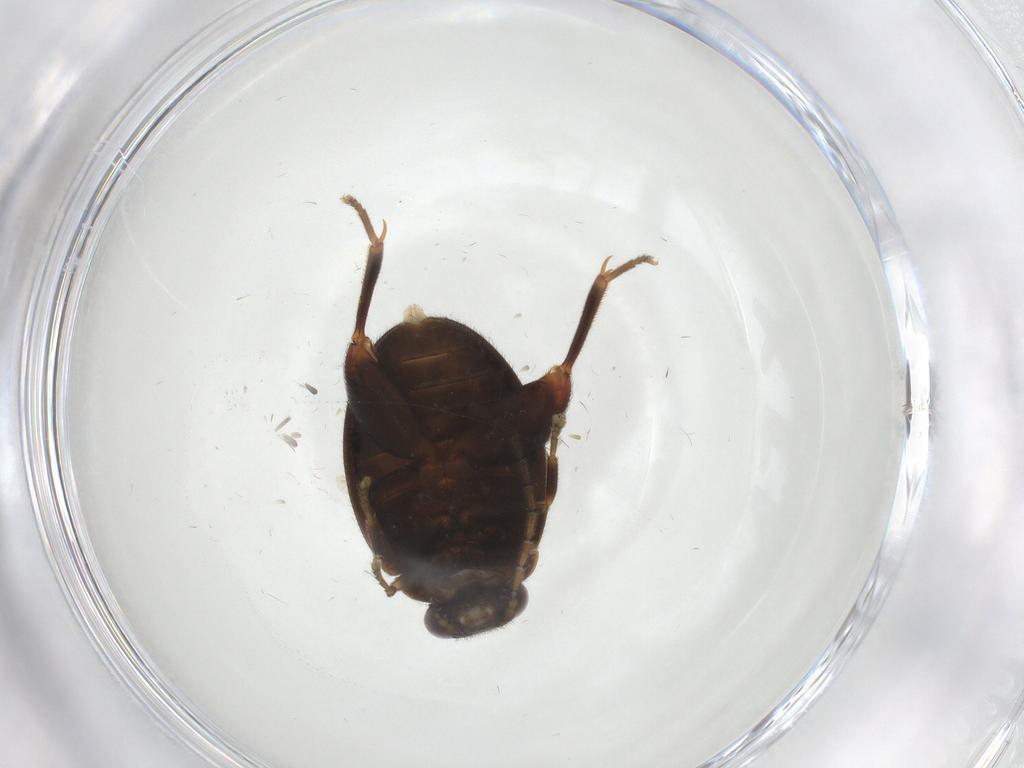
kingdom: Animalia
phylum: Arthropoda
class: Insecta
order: Coleoptera
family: Scirtidae
